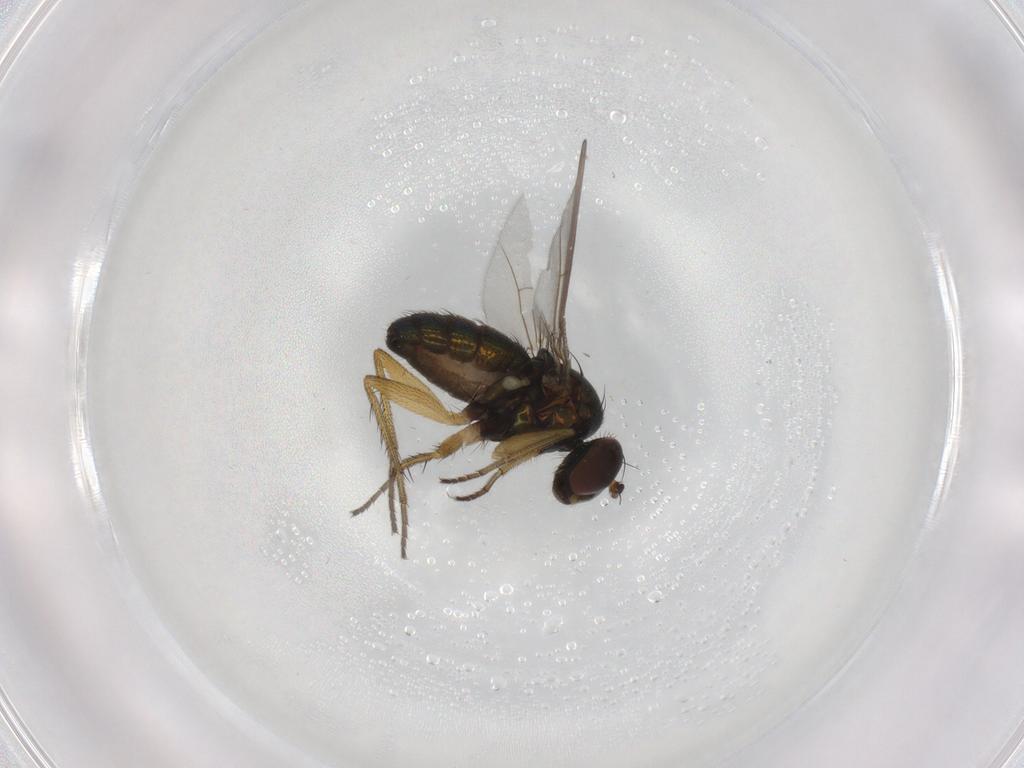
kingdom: Animalia
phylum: Arthropoda
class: Insecta
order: Diptera
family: Dolichopodidae
